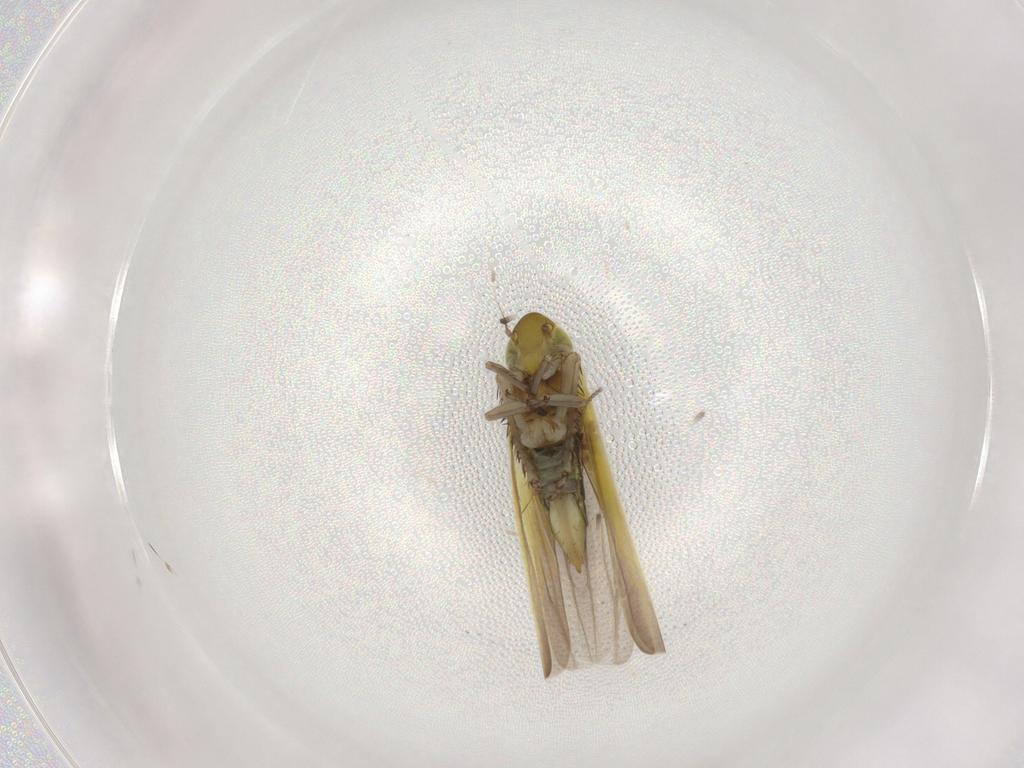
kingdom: Animalia
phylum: Arthropoda
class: Insecta
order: Hemiptera
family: Cicadellidae
